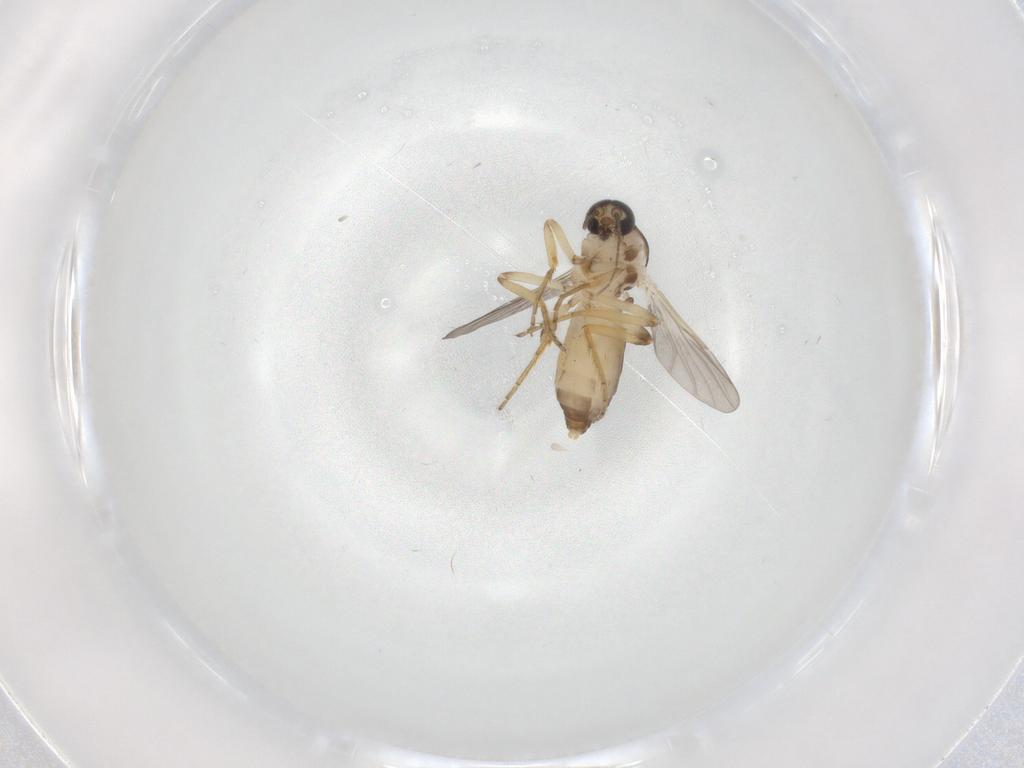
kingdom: Animalia
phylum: Arthropoda
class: Insecta
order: Diptera
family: Ceratopogonidae
